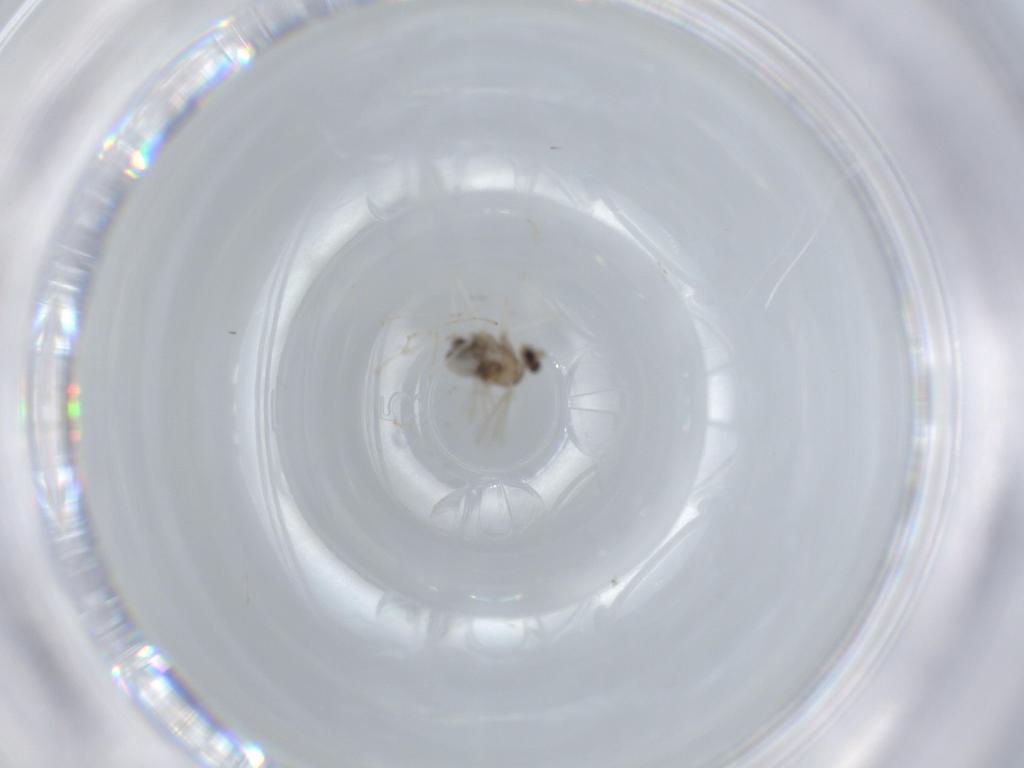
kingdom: Animalia
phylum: Arthropoda
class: Insecta
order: Diptera
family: Cecidomyiidae
